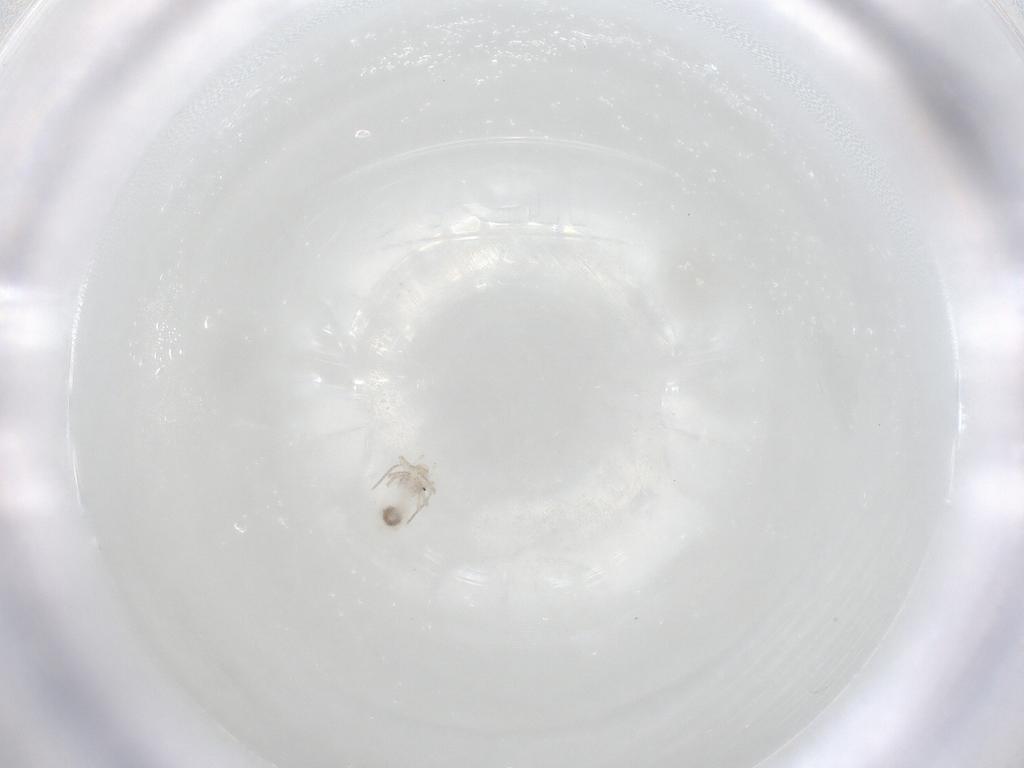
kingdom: Animalia
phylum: Arthropoda
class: Insecta
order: Psocodea
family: Caeciliusidae
